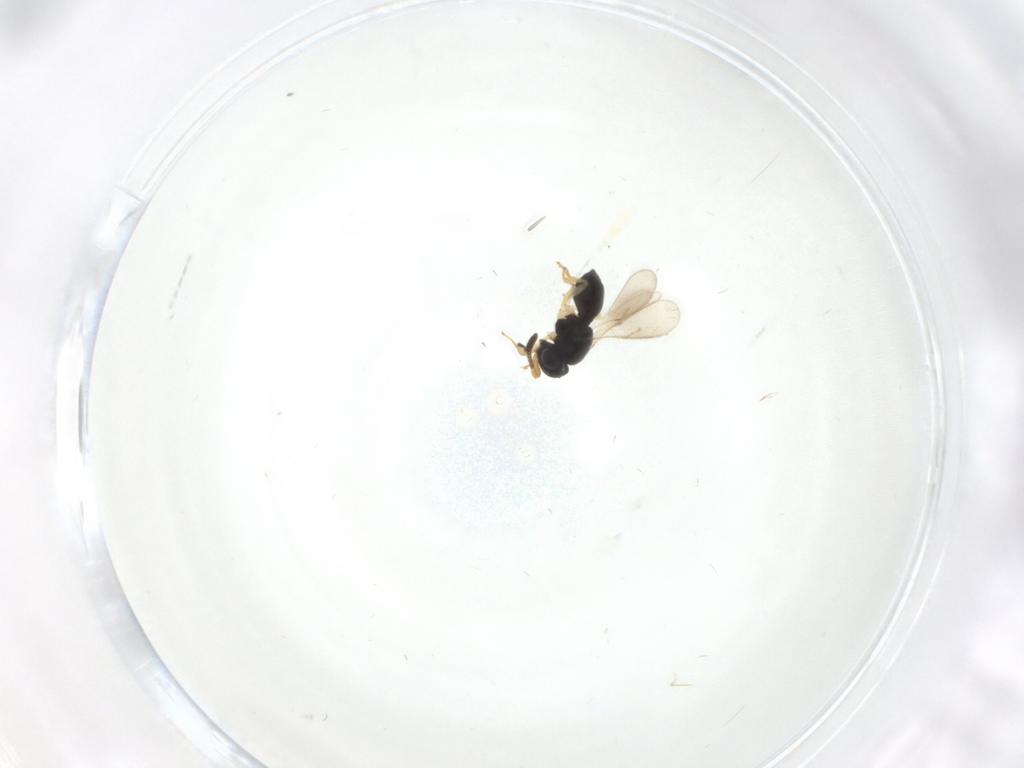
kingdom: Animalia
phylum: Arthropoda
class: Insecta
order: Hymenoptera
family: Scelionidae
